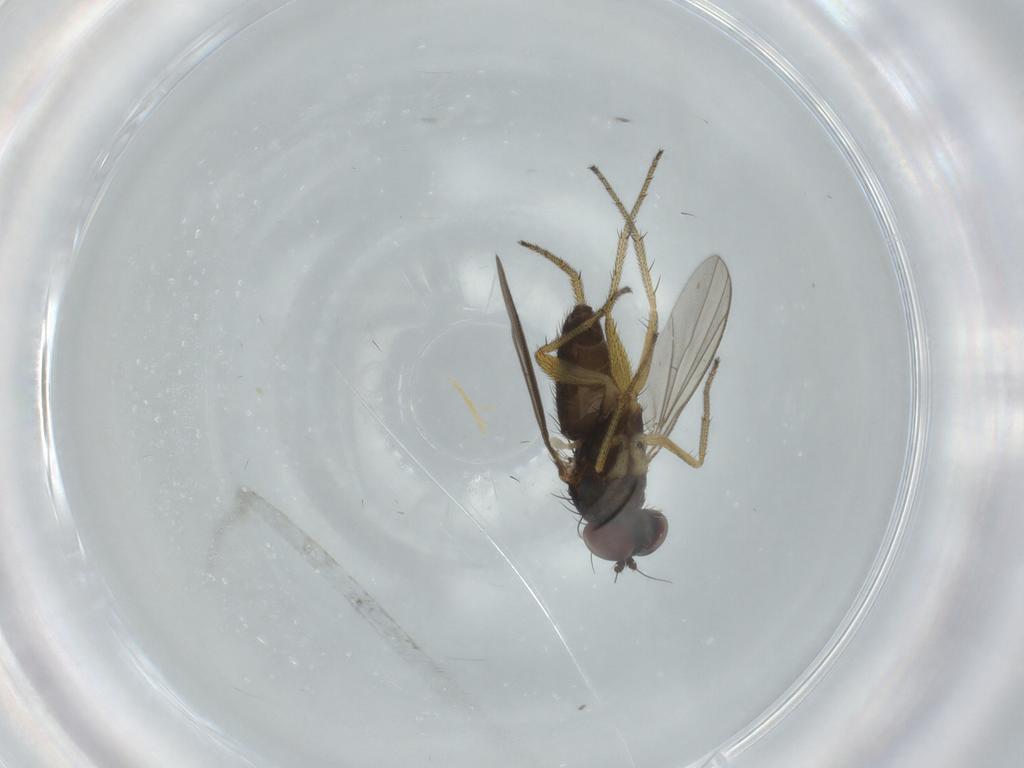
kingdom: Animalia
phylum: Arthropoda
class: Insecta
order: Diptera
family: Dolichopodidae
